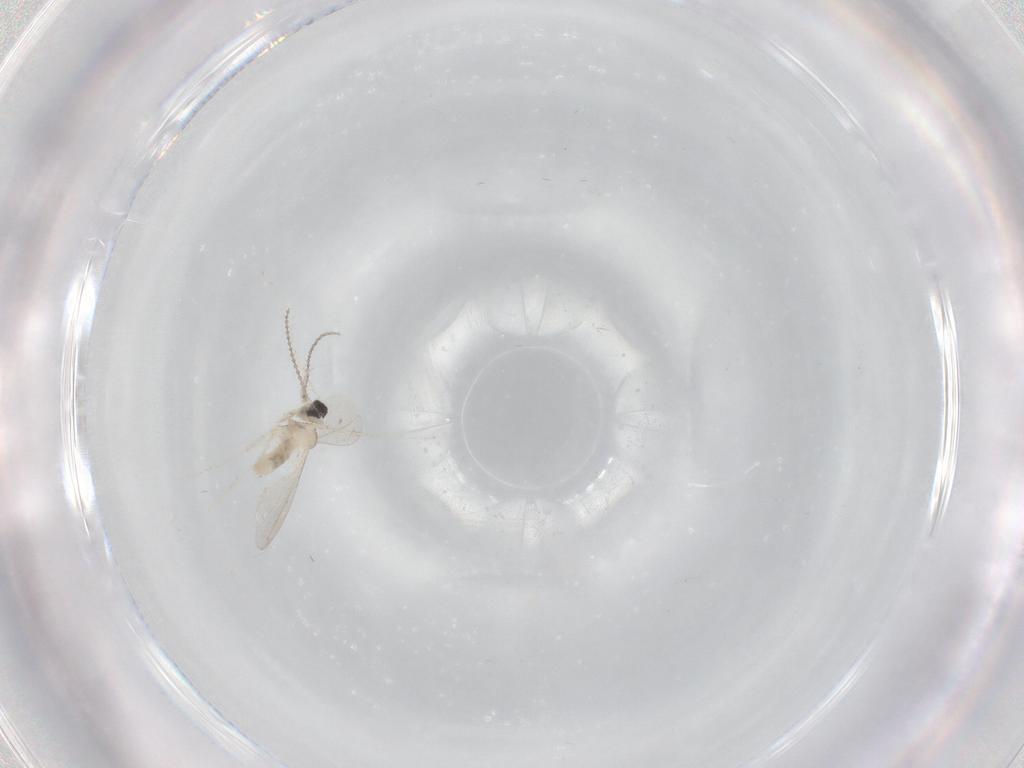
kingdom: Animalia
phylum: Arthropoda
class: Insecta
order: Diptera
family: Cecidomyiidae
